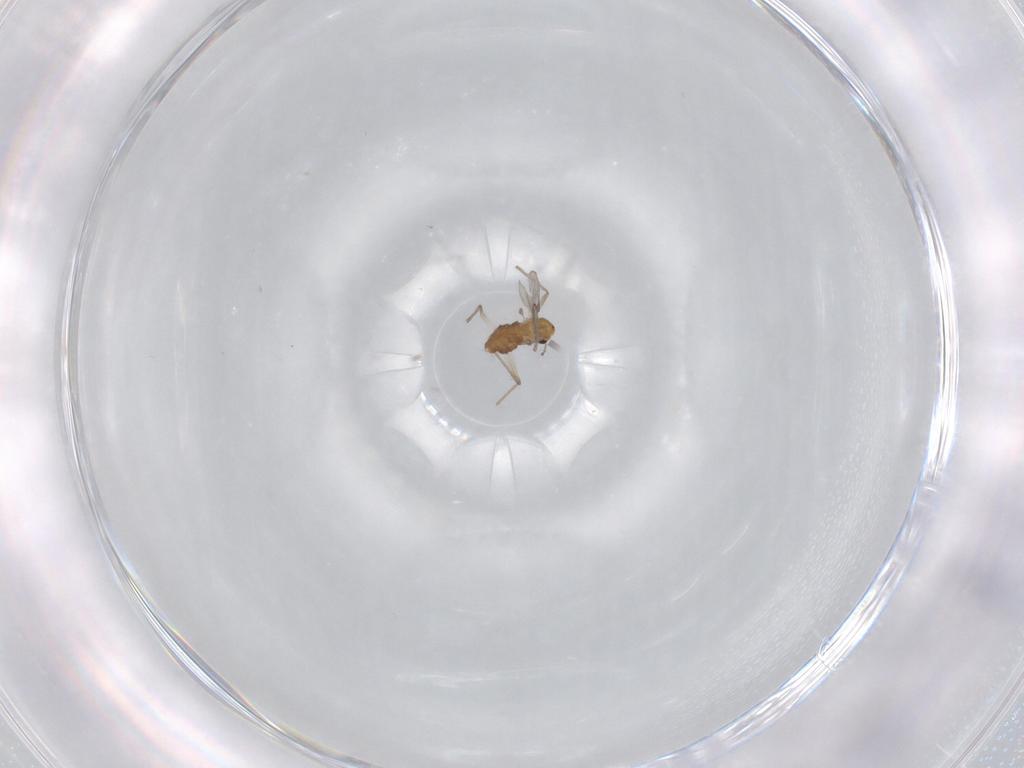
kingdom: Animalia
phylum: Arthropoda
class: Insecta
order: Diptera
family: Chironomidae
